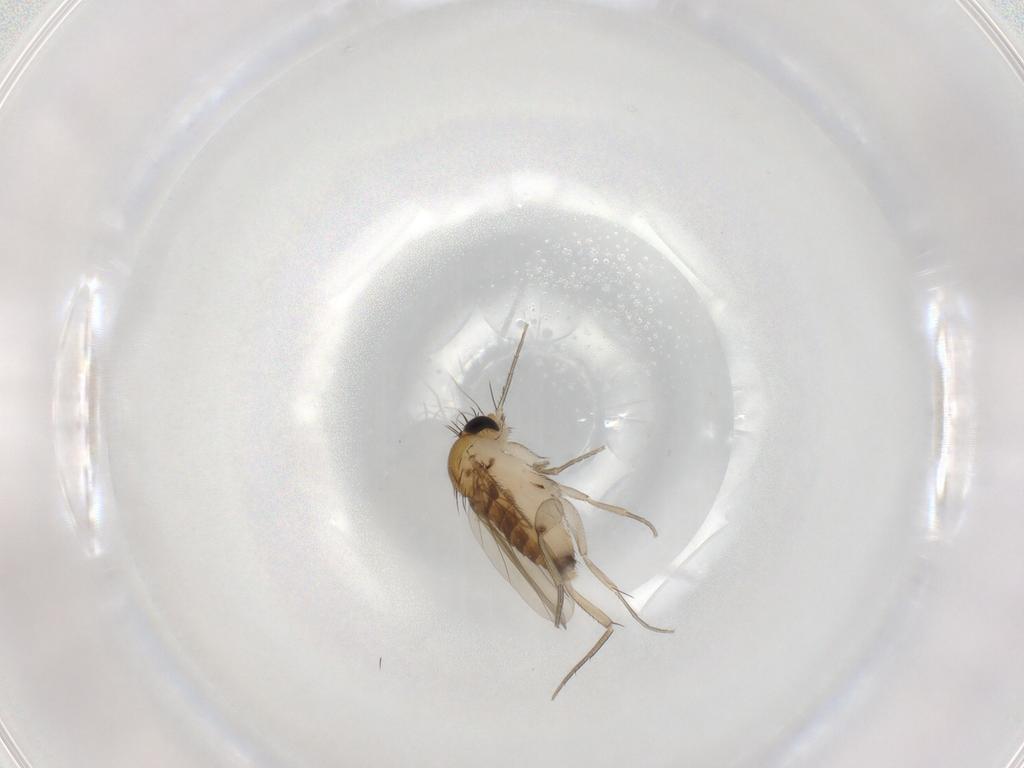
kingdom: Animalia
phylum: Arthropoda
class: Insecta
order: Diptera
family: Phoridae
